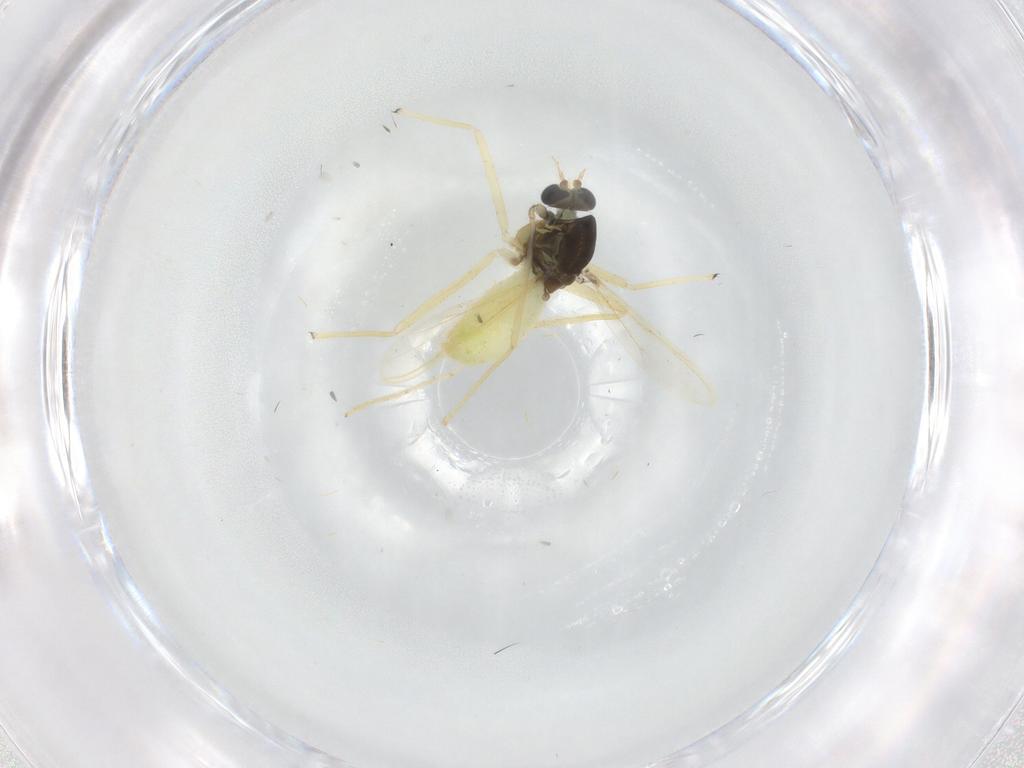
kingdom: Animalia
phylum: Arthropoda
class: Insecta
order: Diptera
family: Chironomidae
